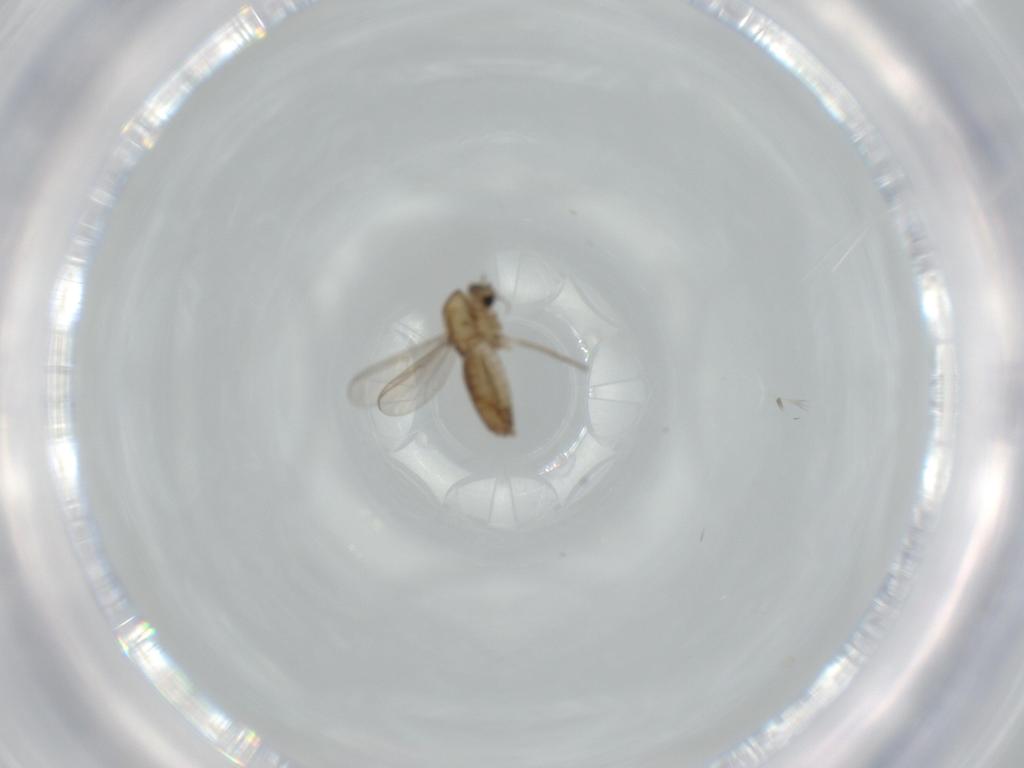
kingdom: Animalia
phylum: Arthropoda
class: Insecta
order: Diptera
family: Chironomidae
